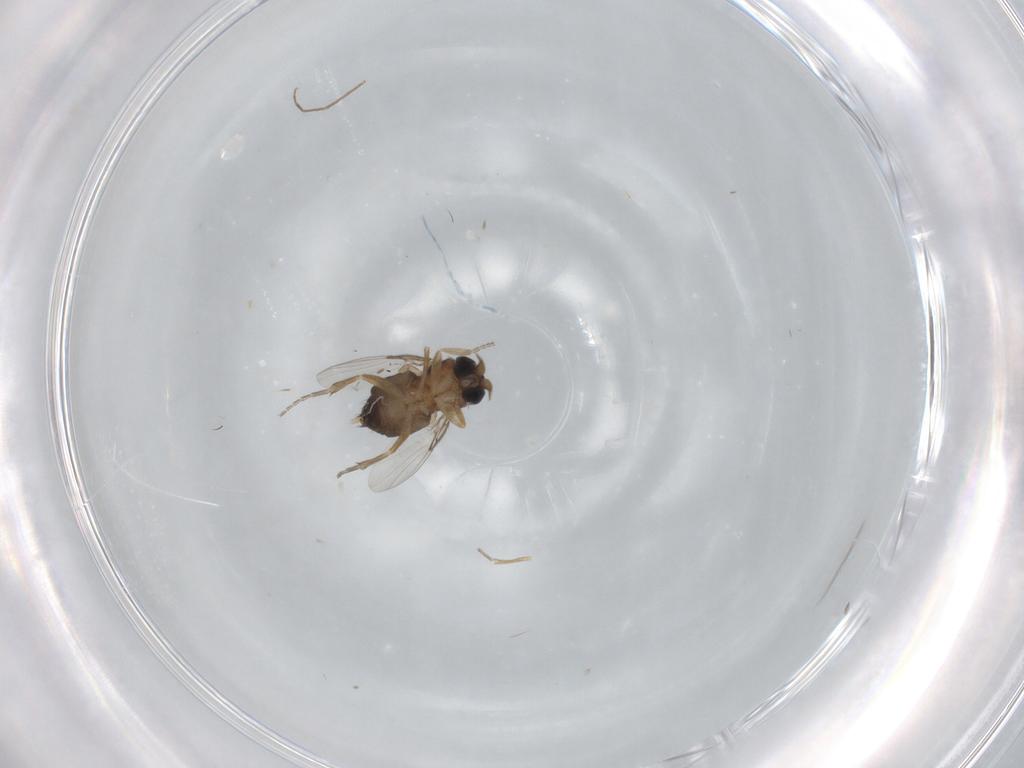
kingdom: Animalia
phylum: Arthropoda
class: Insecta
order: Diptera
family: Phoridae
